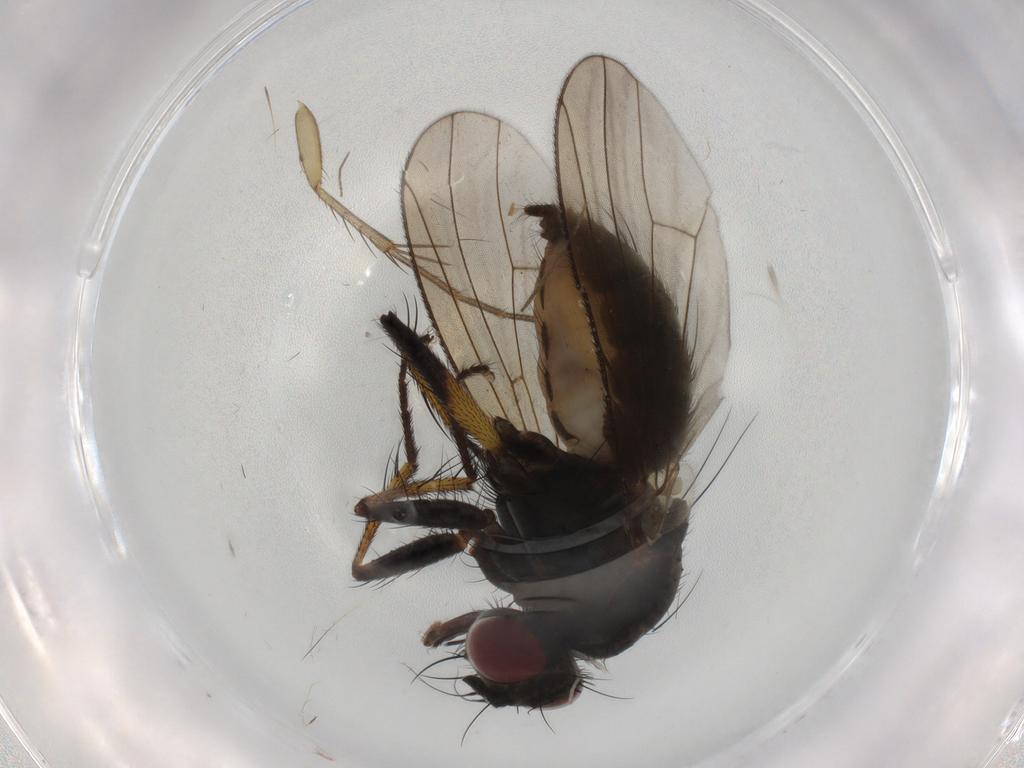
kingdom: Animalia
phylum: Arthropoda
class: Insecta
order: Diptera
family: Muscidae
